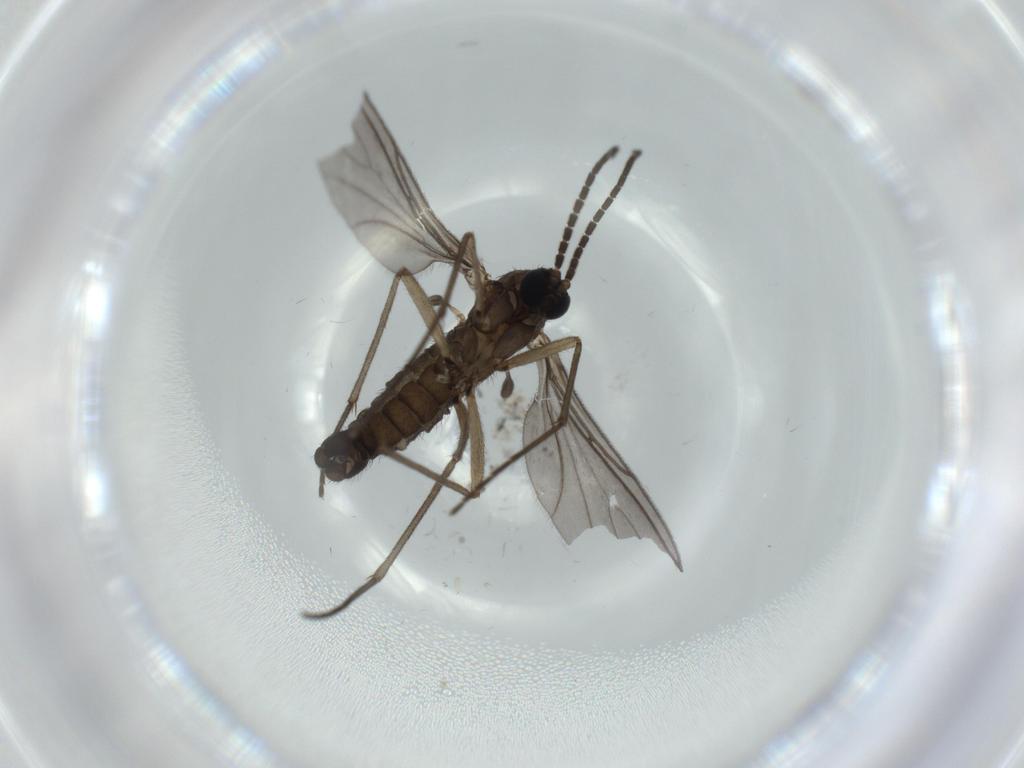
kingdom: Animalia
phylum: Arthropoda
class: Insecta
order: Diptera
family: Sciaridae
